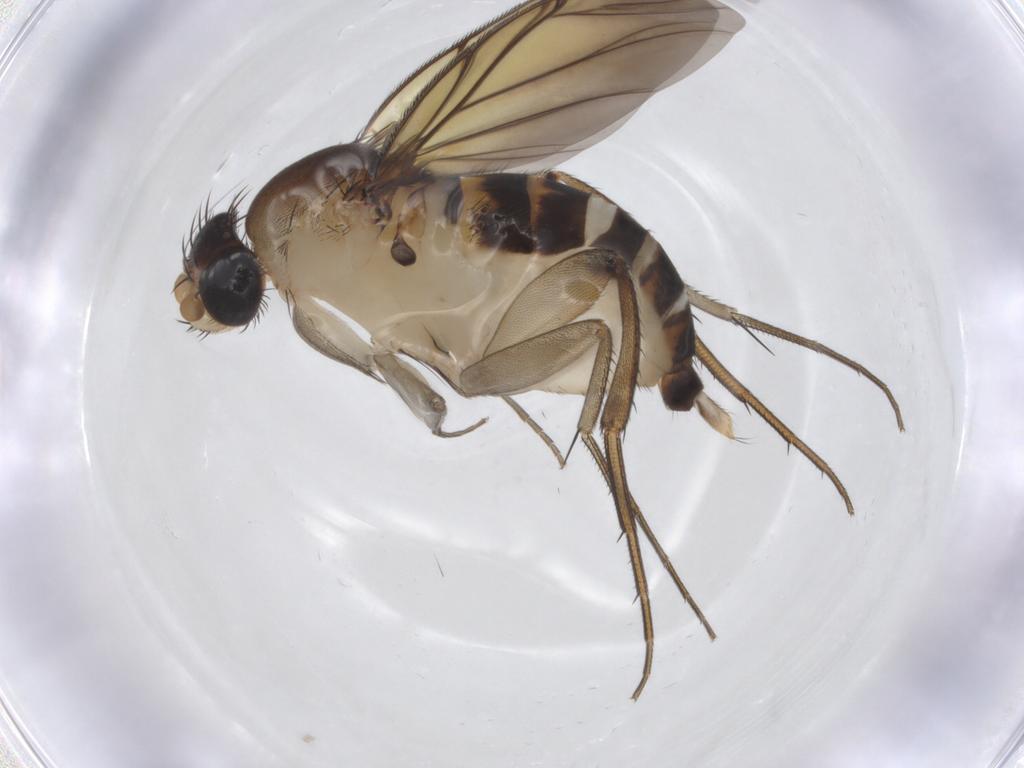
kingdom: Animalia
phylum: Arthropoda
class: Insecta
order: Diptera
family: Phoridae
